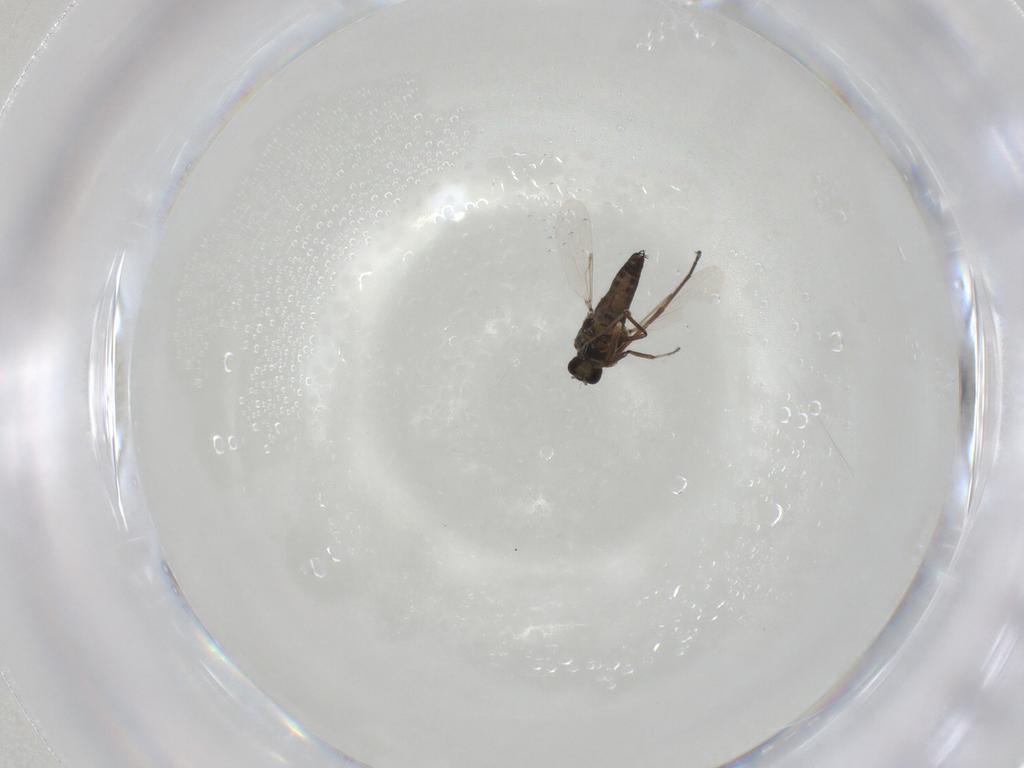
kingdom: Animalia
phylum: Arthropoda
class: Insecta
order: Diptera
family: Ceratopogonidae
